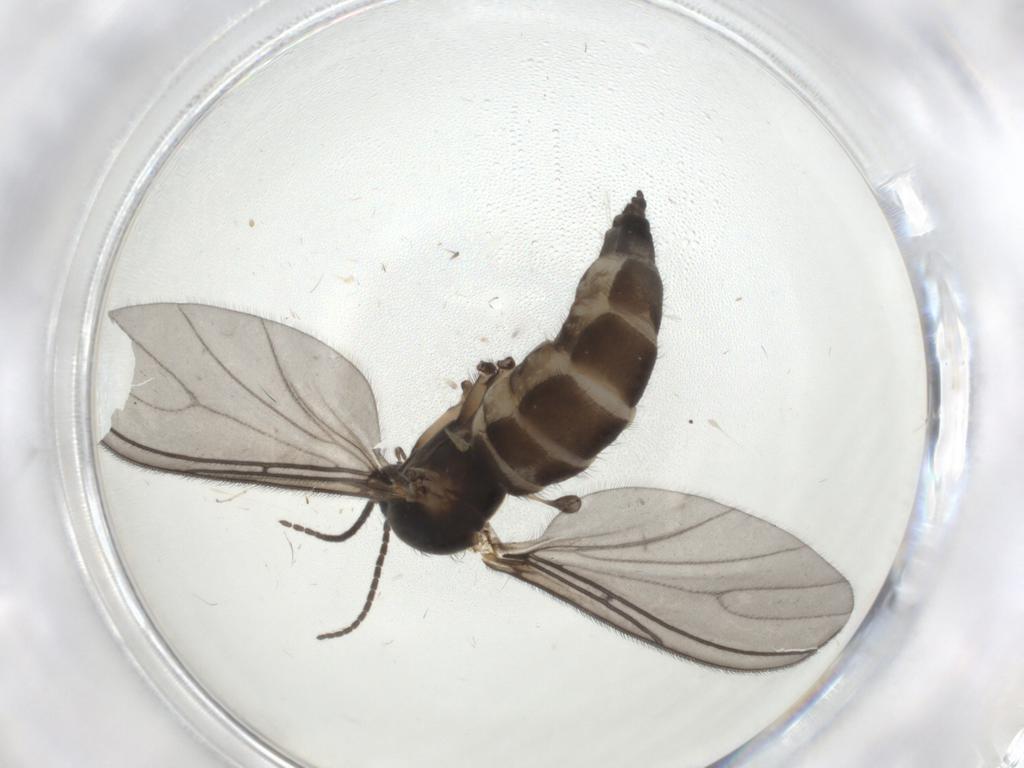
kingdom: Animalia
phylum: Arthropoda
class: Insecta
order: Diptera
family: Sciaridae
